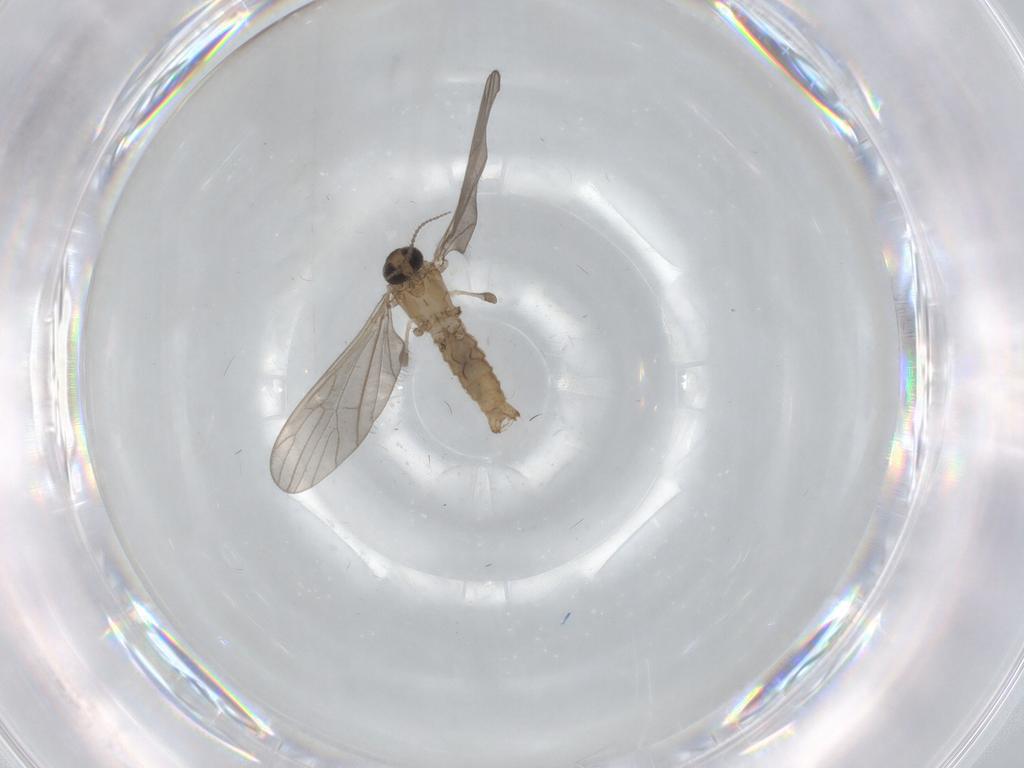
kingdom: Animalia
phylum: Arthropoda
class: Insecta
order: Diptera
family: Limoniidae
